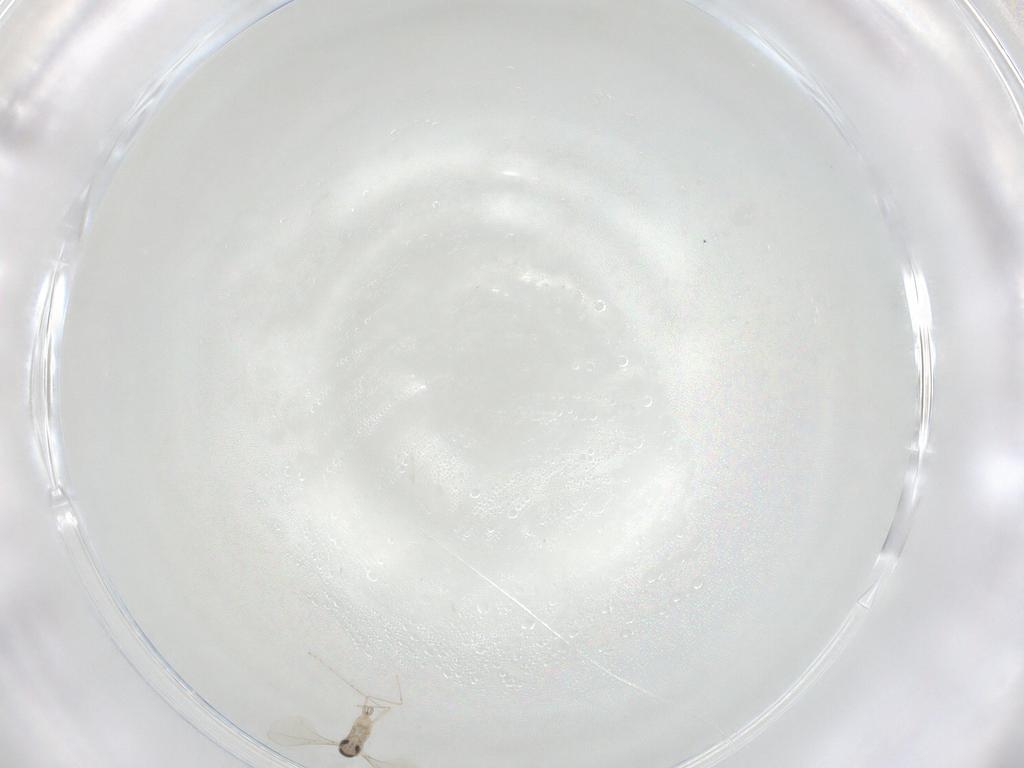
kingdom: Animalia
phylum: Arthropoda
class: Insecta
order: Diptera
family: Cecidomyiidae
